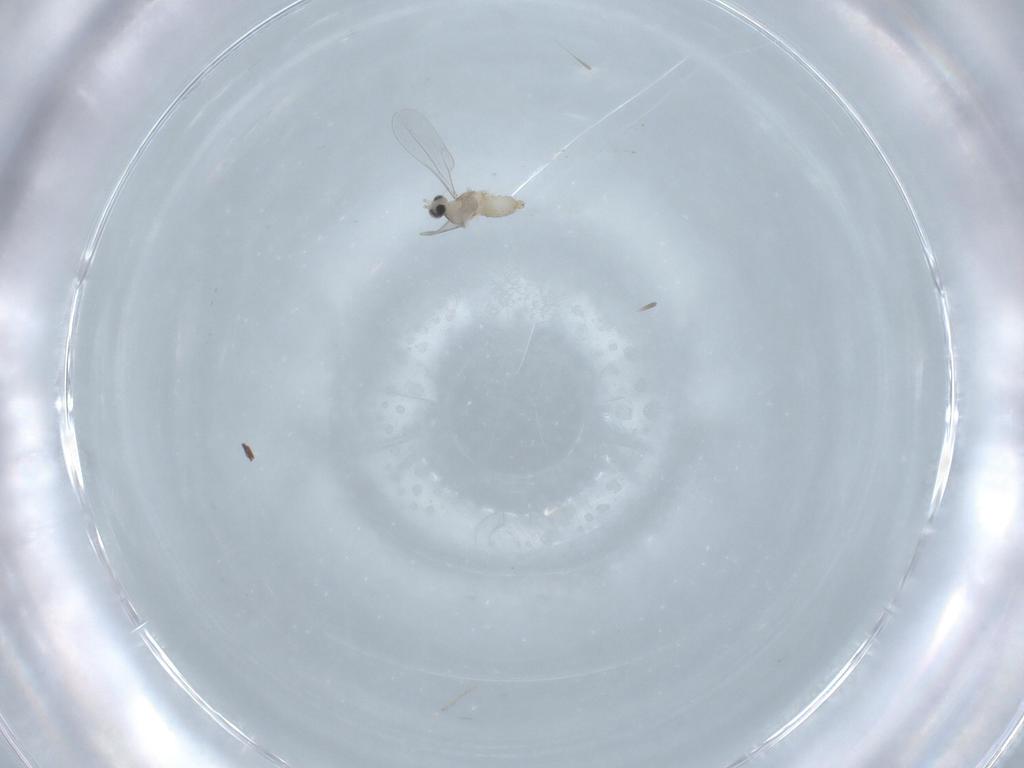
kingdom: Animalia
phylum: Arthropoda
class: Insecta
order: Diptera
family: Cecidomyiidae
